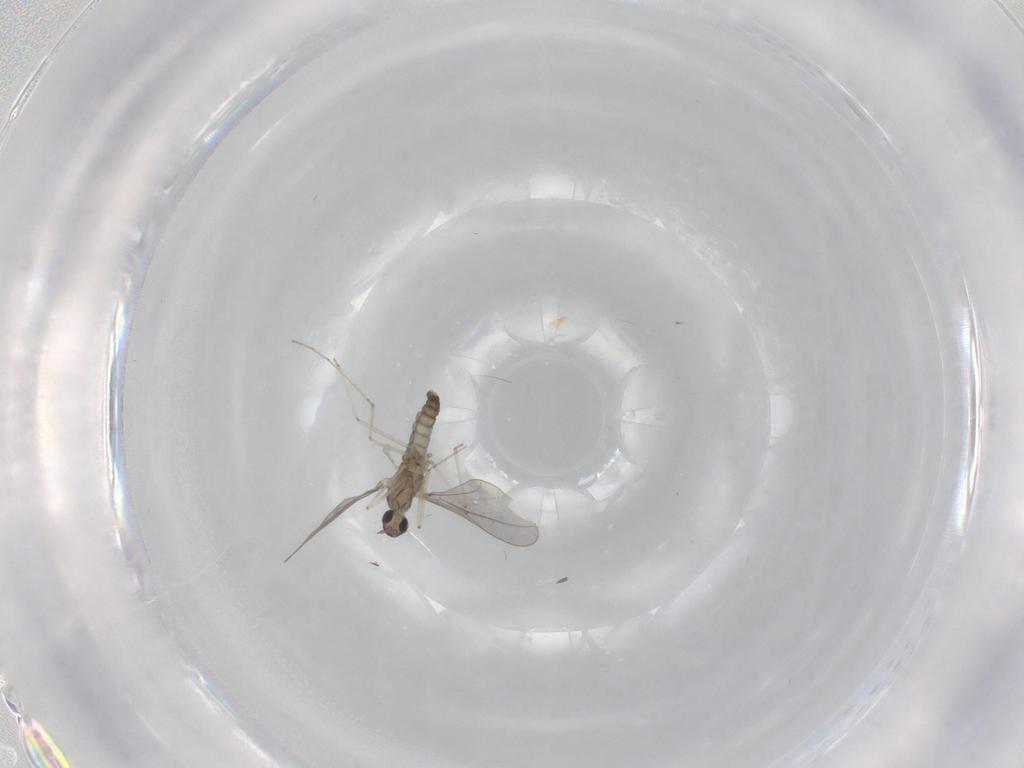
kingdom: Animalia
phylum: Arthropoda
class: Insecta
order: Diptera
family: Cecidomyiidae
